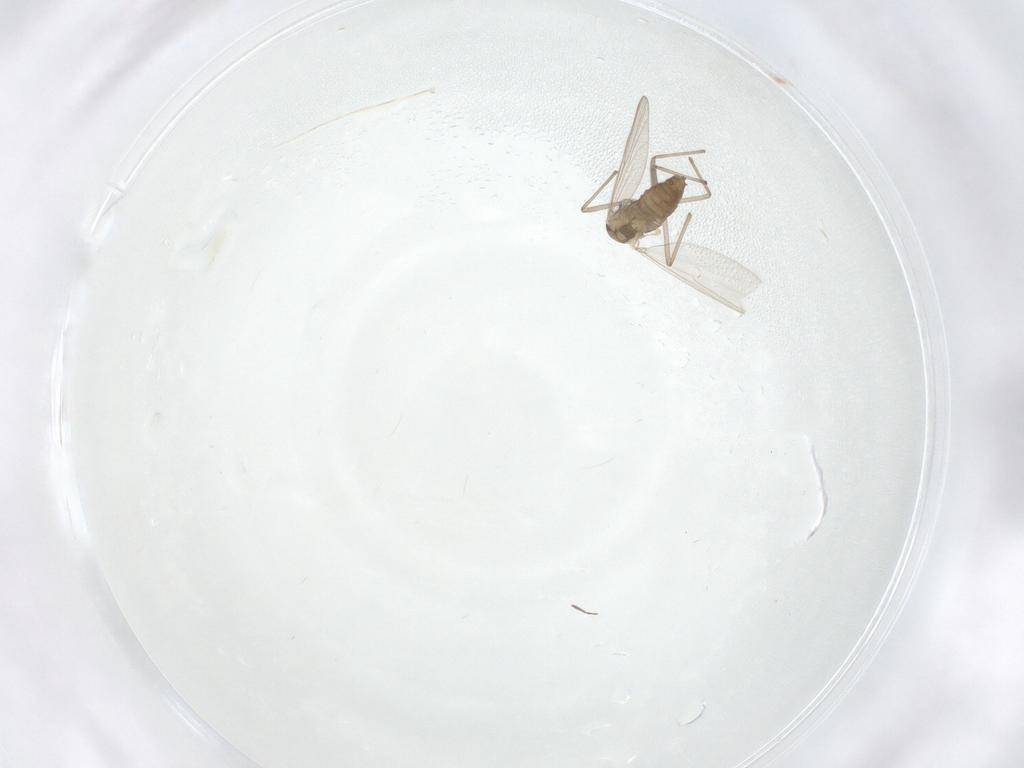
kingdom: Animalia
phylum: Arthropoda
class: Insecta
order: Diptera
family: Chironomidae
